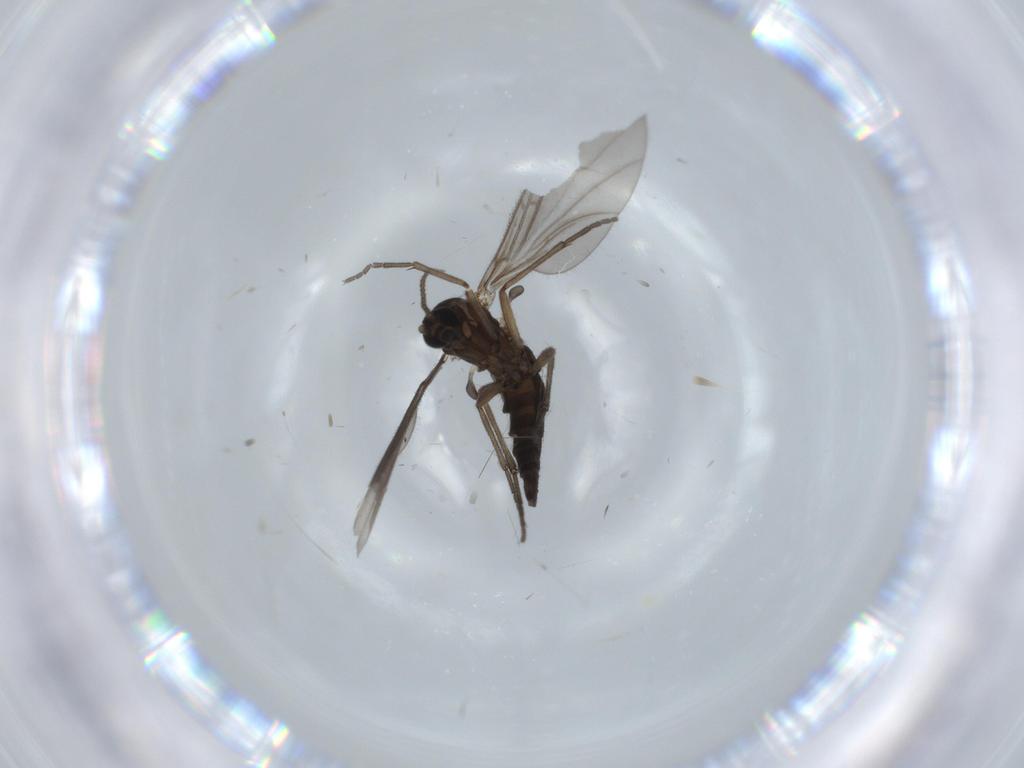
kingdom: Animalia
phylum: Arthropoda
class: Insecta
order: Diptera
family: Sciaridae
